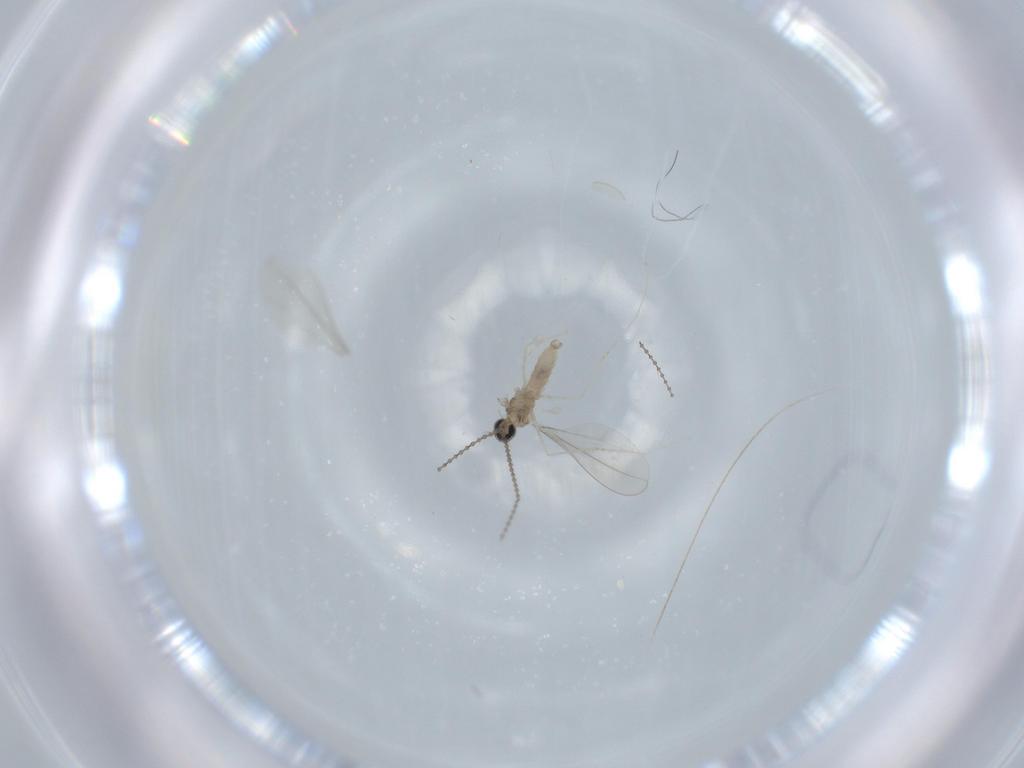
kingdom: Animalia
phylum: Arthropoda
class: Insecta
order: Diptera
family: Cecidomyiidae
